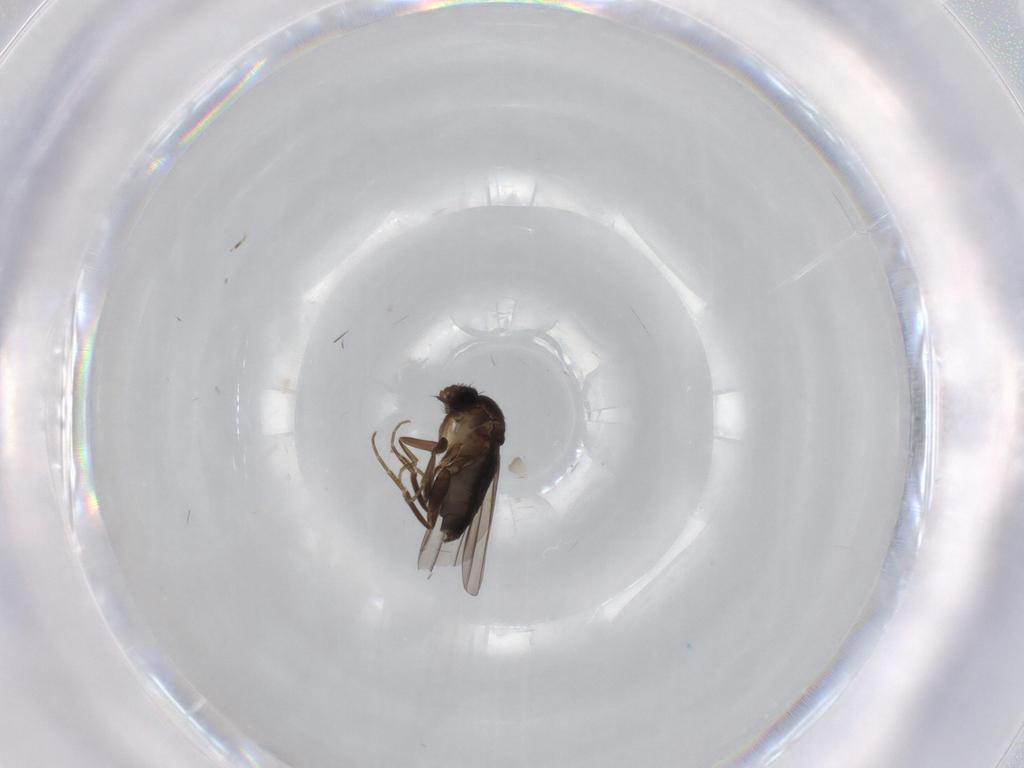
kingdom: Animalia
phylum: Arthropoda
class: Insecta
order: Diptera
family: Phoridae
